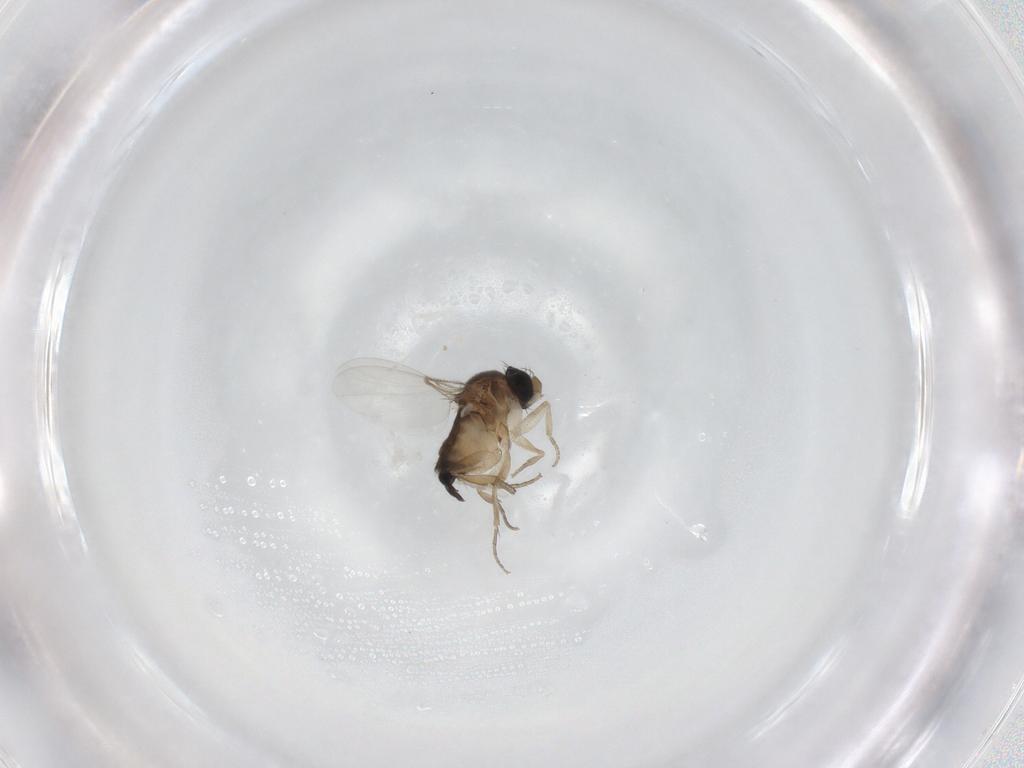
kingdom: Animalia
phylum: Arthropoda
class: Insecta
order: Diptera
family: Phoridae
